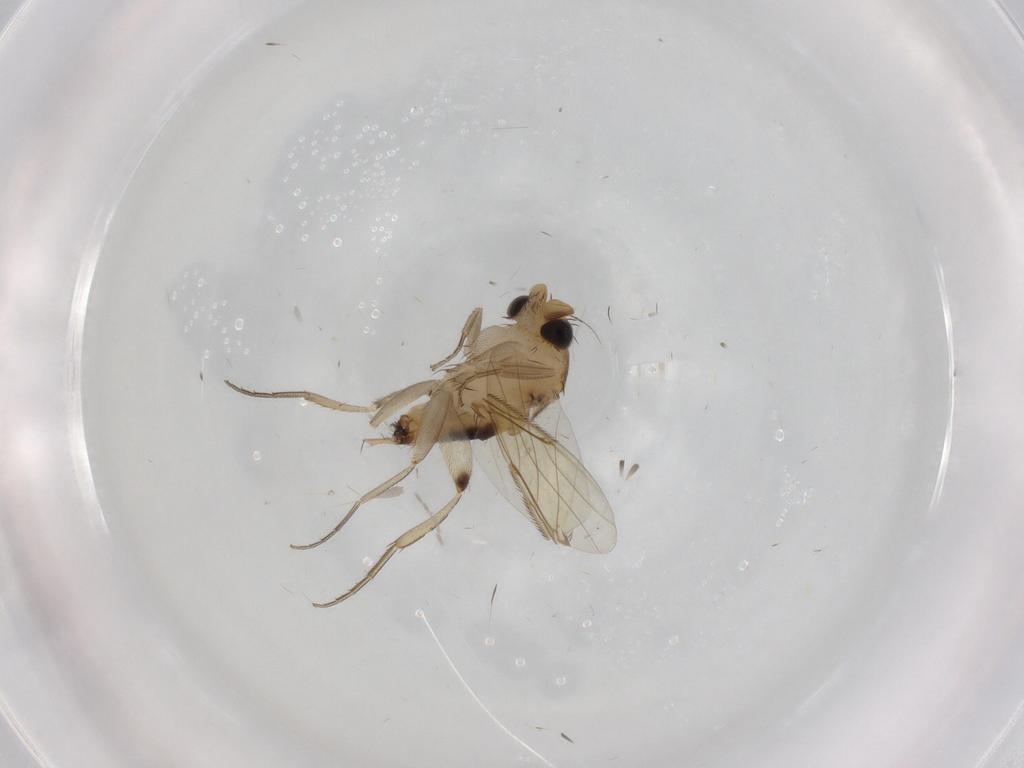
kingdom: Animalia
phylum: Arthropoda
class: Insecta
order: Diptera
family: Phoridae
